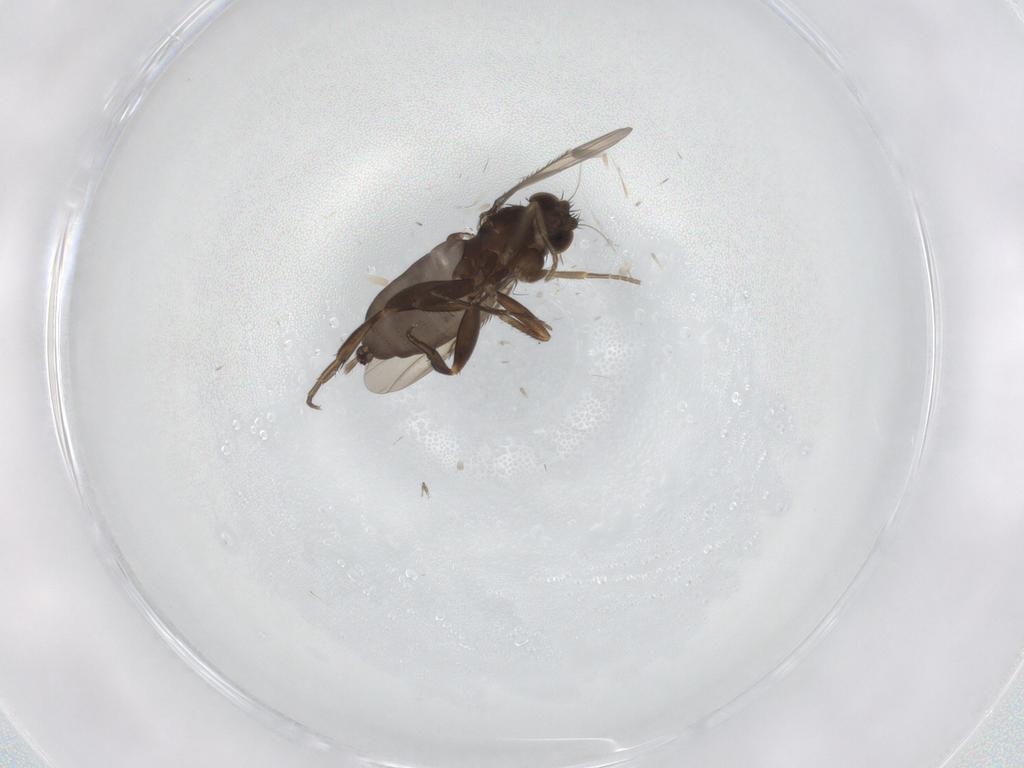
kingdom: Animalia
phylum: Arthropoda
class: Insecta
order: Diptera
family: Phoridae
